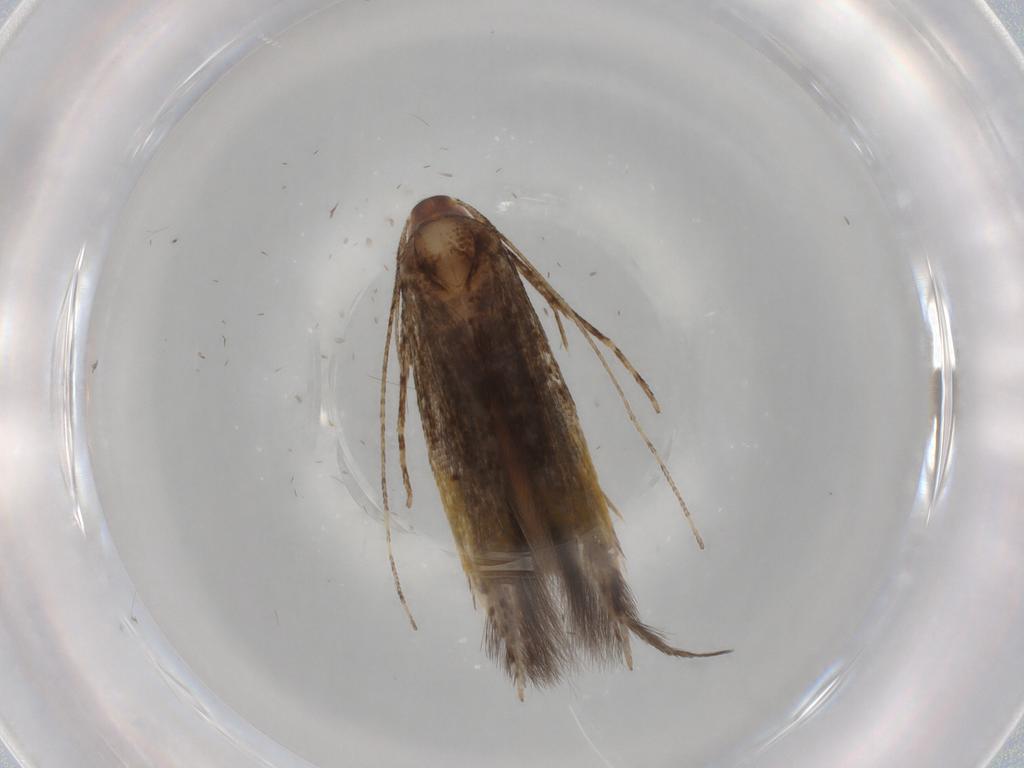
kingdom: Animalia
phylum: Arthropoda
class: Insecta
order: Lepidoptera
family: Cosmopterigidae
